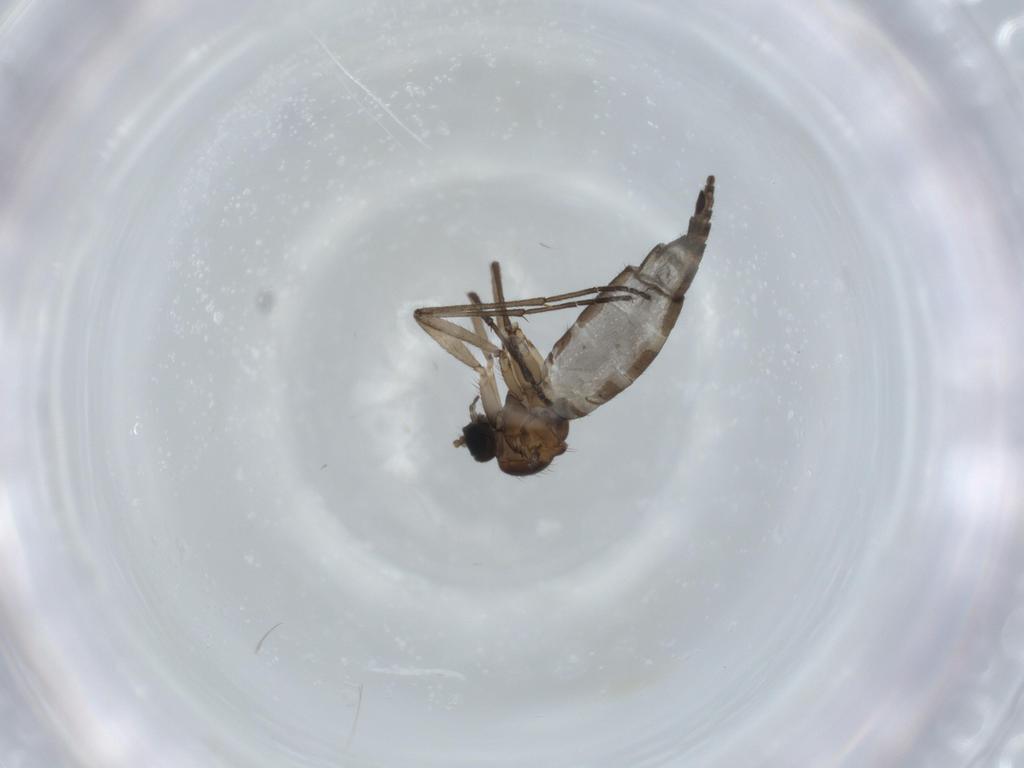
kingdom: Animalia
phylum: Arthropoda
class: Insecta
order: Diptera
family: Sciaridae
